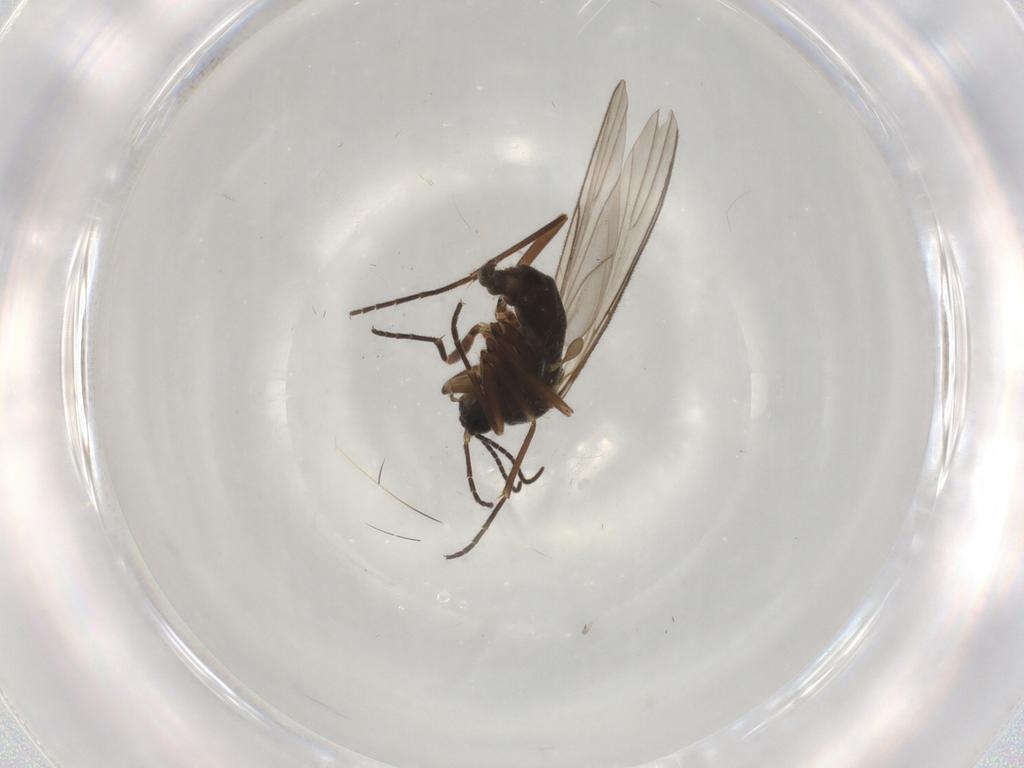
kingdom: Animalia
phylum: Arthropoda
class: Insecta
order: Diptera
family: Sciaridae
